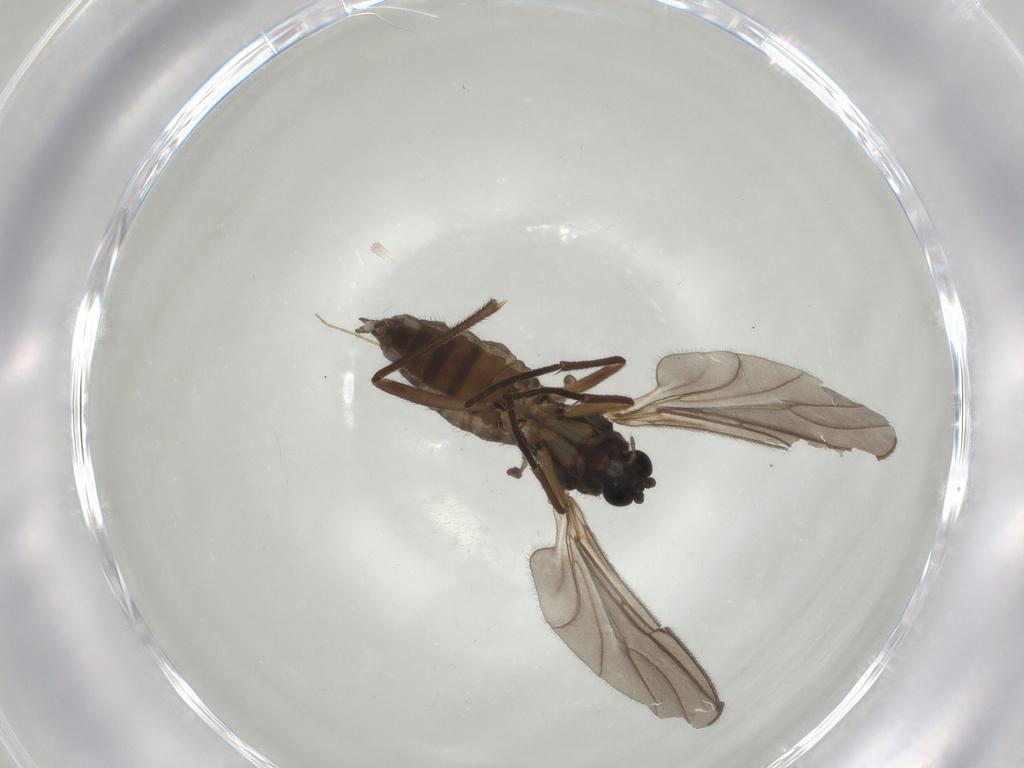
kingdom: Animalia
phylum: Arthropoda
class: Insecta
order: Diptera
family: Sciaridae
